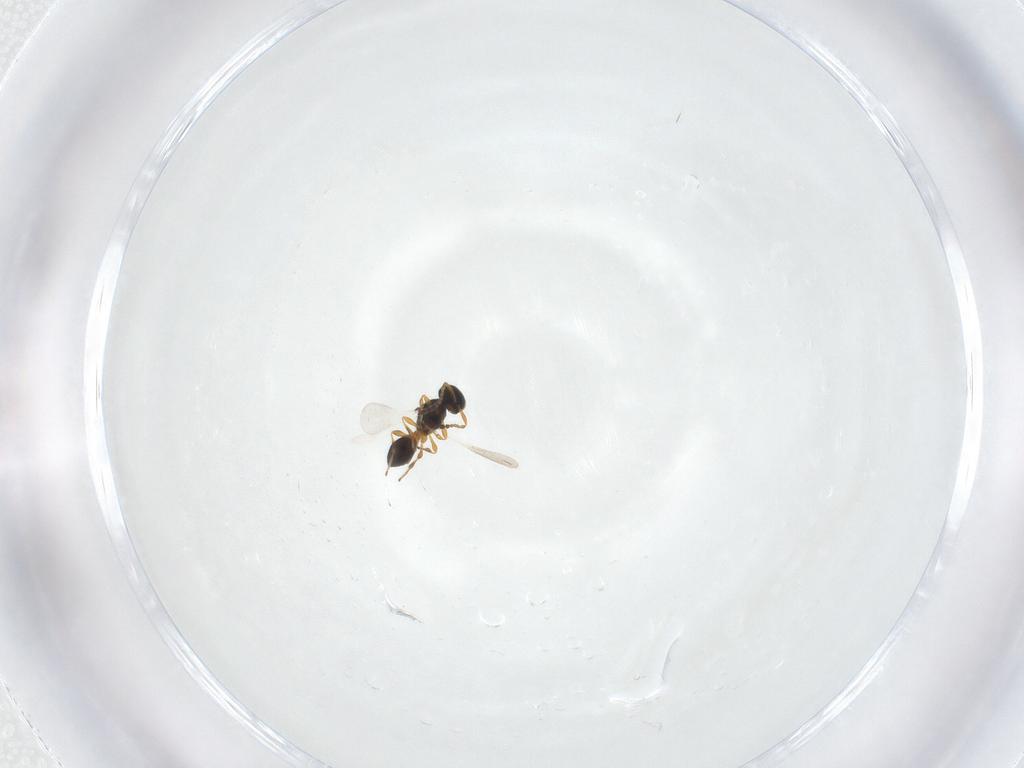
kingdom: Animalia
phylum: Arthropoda
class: Insecta
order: Hymenoptera
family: Platygastridae
